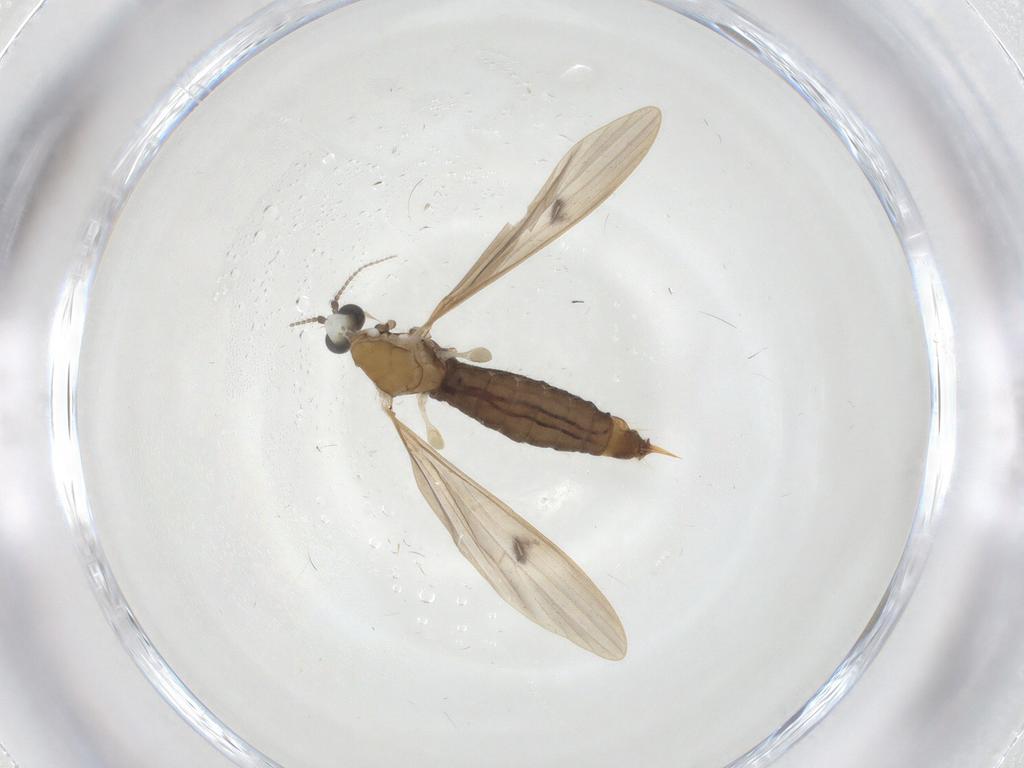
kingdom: Animalia
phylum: Arthropoda
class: Insecta
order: Diptera
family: Limoniidae
